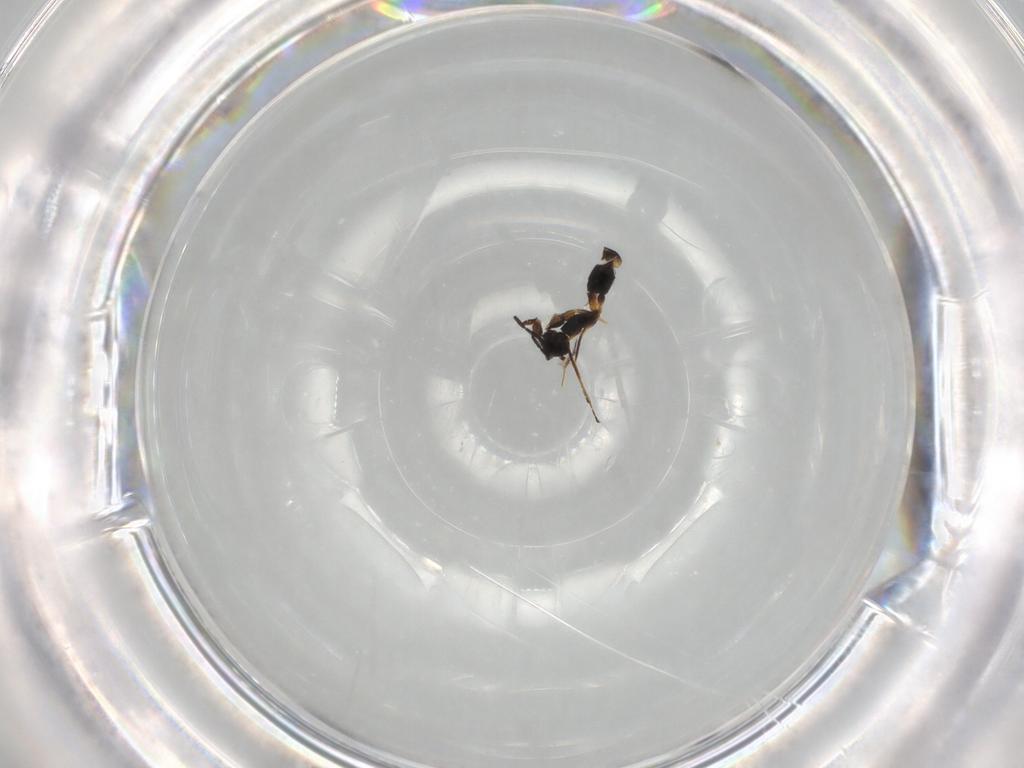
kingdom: Animalia
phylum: Arthropoda
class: Insecta
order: Hymenoptera
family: Mymaridae
